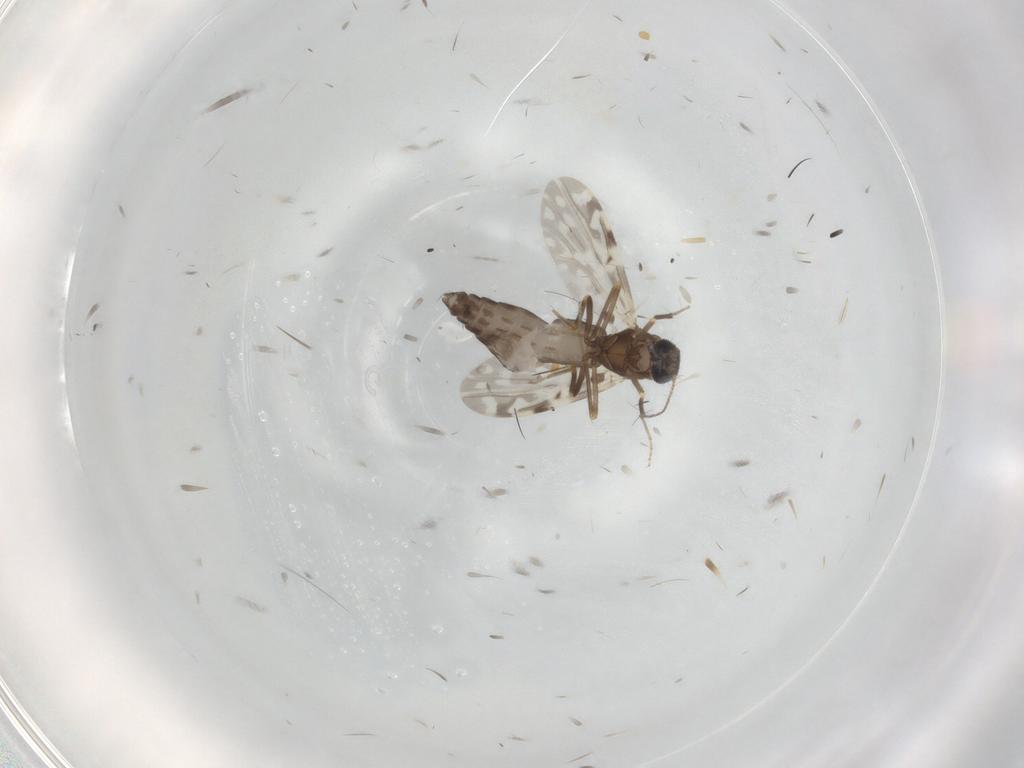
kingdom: Animalia
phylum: Arthropoda
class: Insecta
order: Diptera
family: Ceratopogonidae
